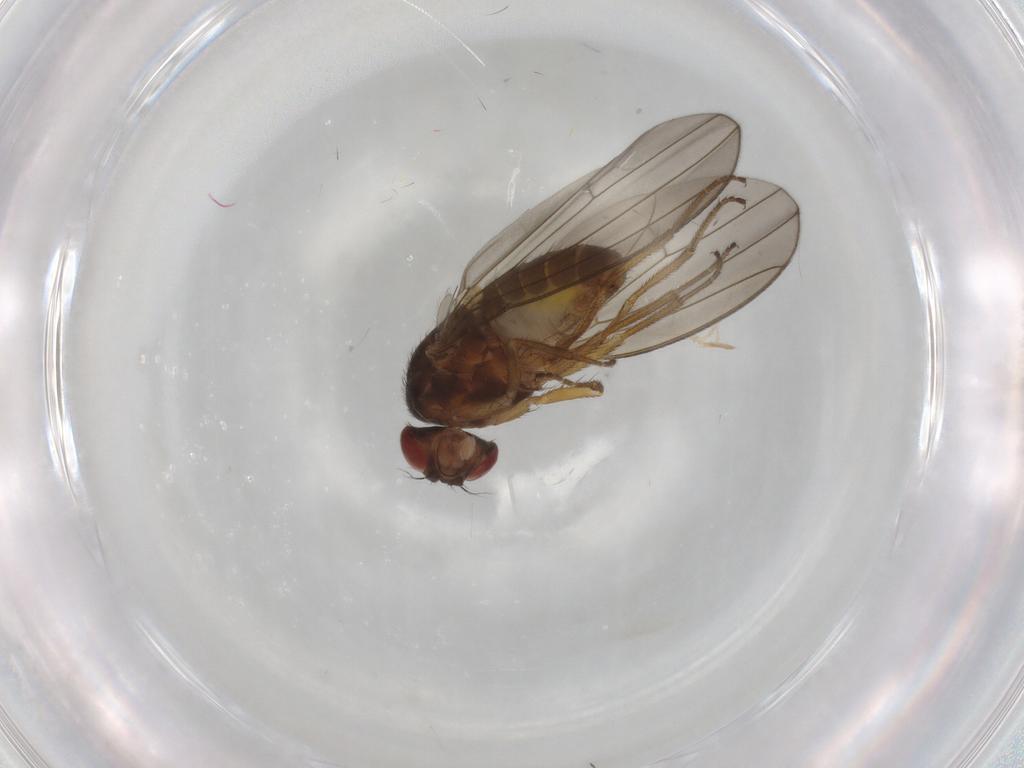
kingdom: Animalia
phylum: Arthropoda
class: Insecta
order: Diptera
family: Drosophilidae
